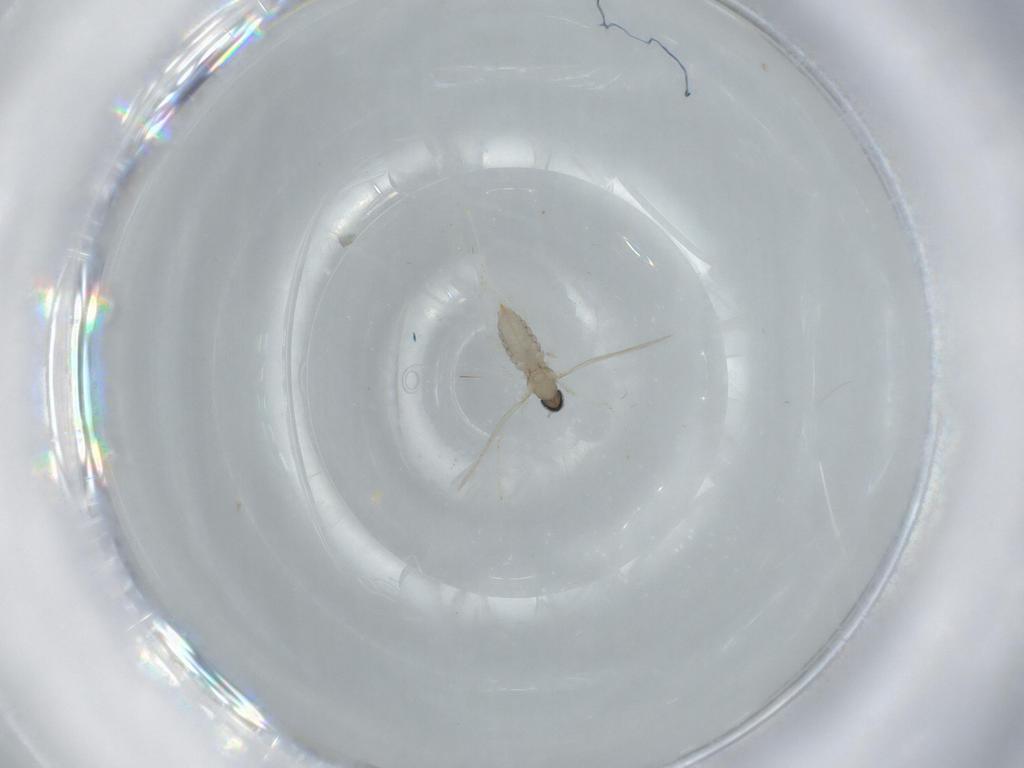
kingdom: Animalia
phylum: Arthropoda
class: Insecta
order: Diptera
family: Cecidomyiidae
